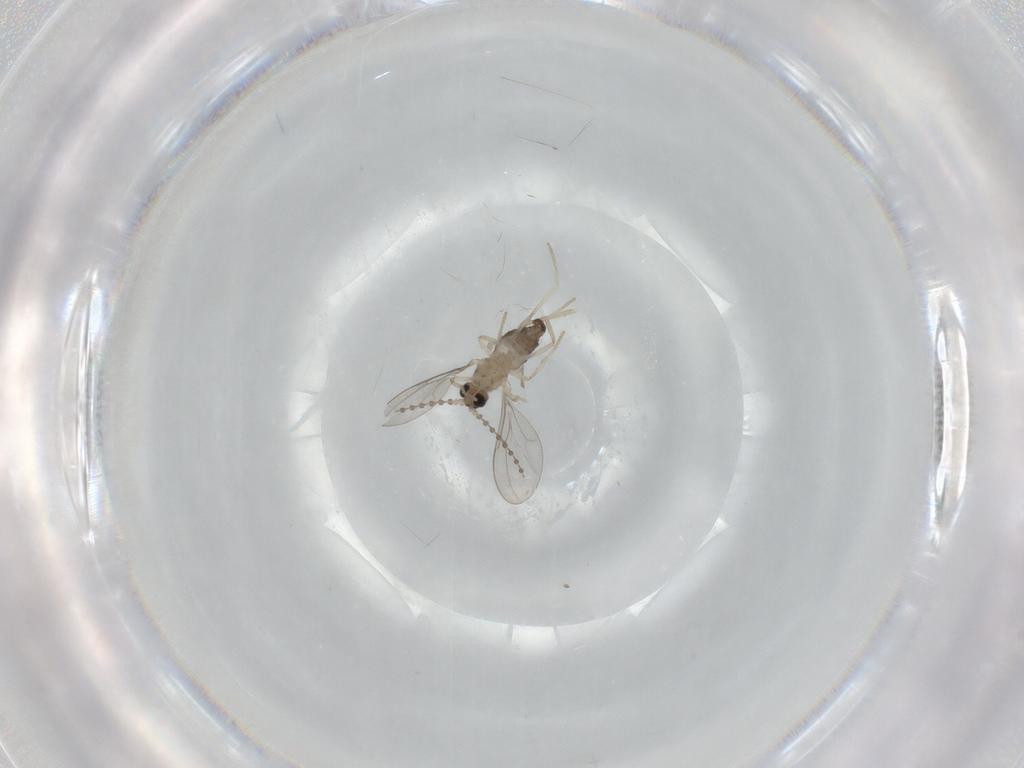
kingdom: Animalia
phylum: Arthropoda
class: Insecta
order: Diptera
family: Cecidomyiidae
